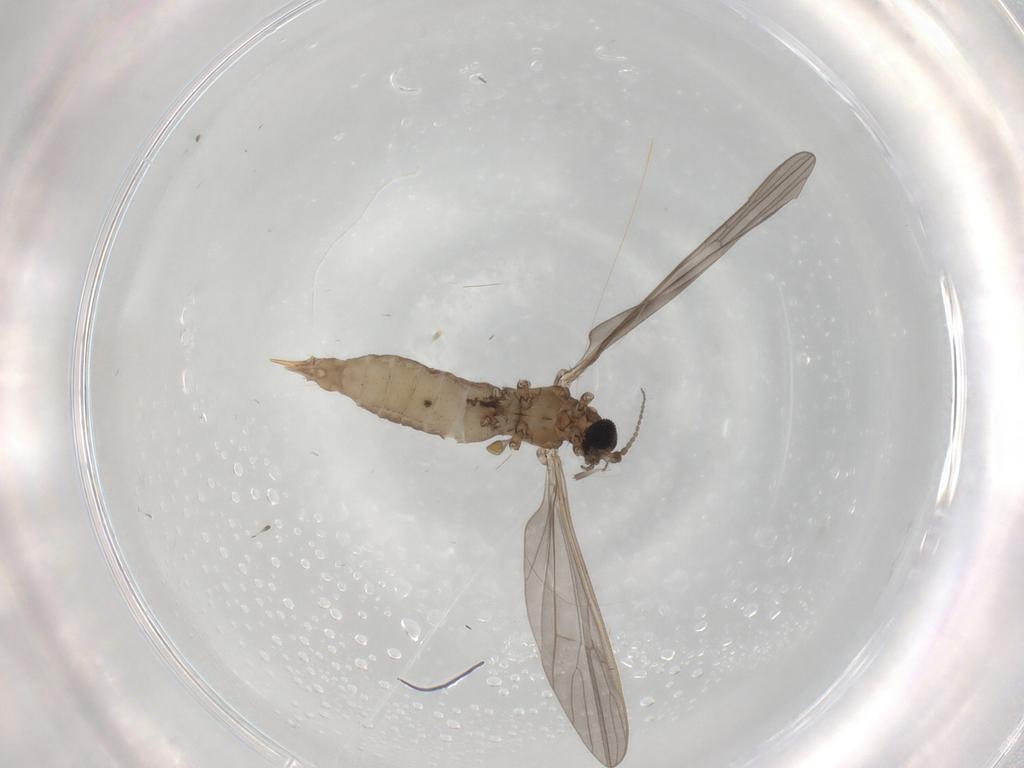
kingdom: Animalia
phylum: Arthropoda
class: Insecta
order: Diptera
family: Limoniidae
